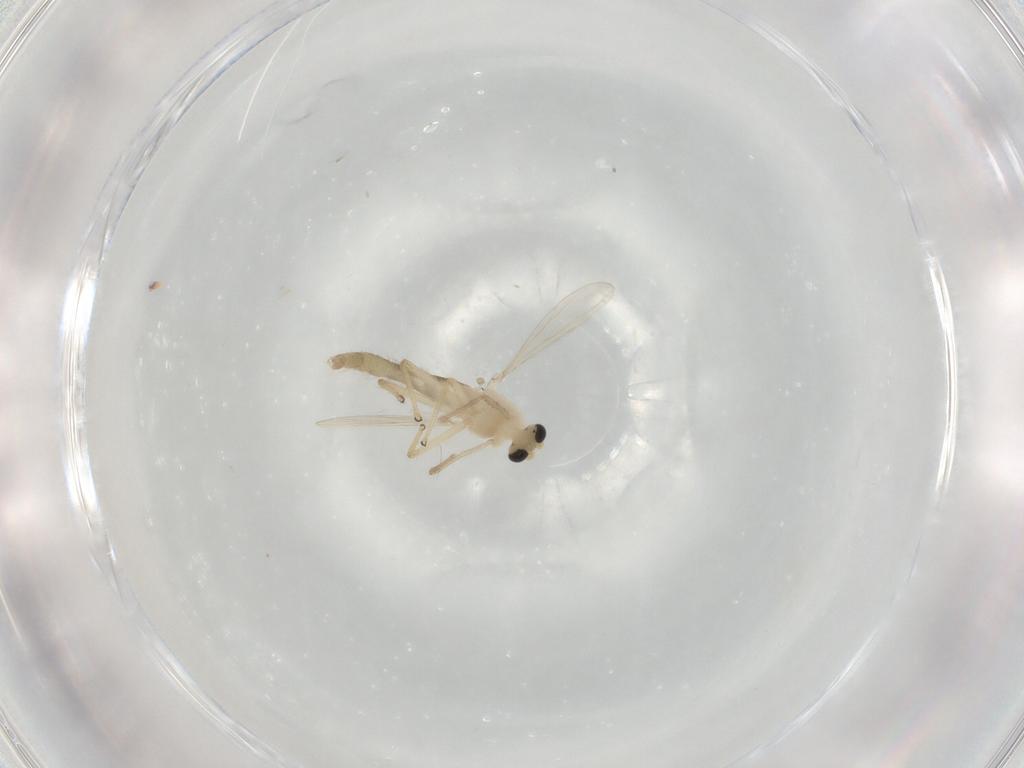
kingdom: Animalia
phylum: Arthropoda
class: Insecta
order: Diptera
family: Chironomidae
